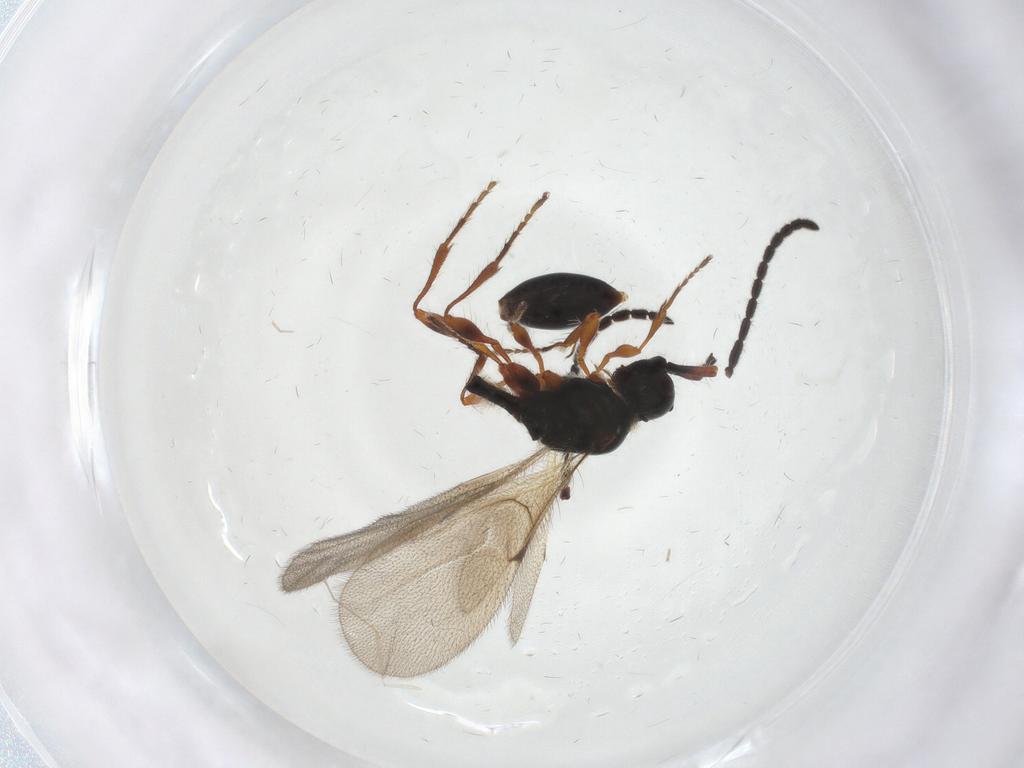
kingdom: Animalia
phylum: Arthropoda
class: Insecta
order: Hymenoptera
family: Diapriidae
